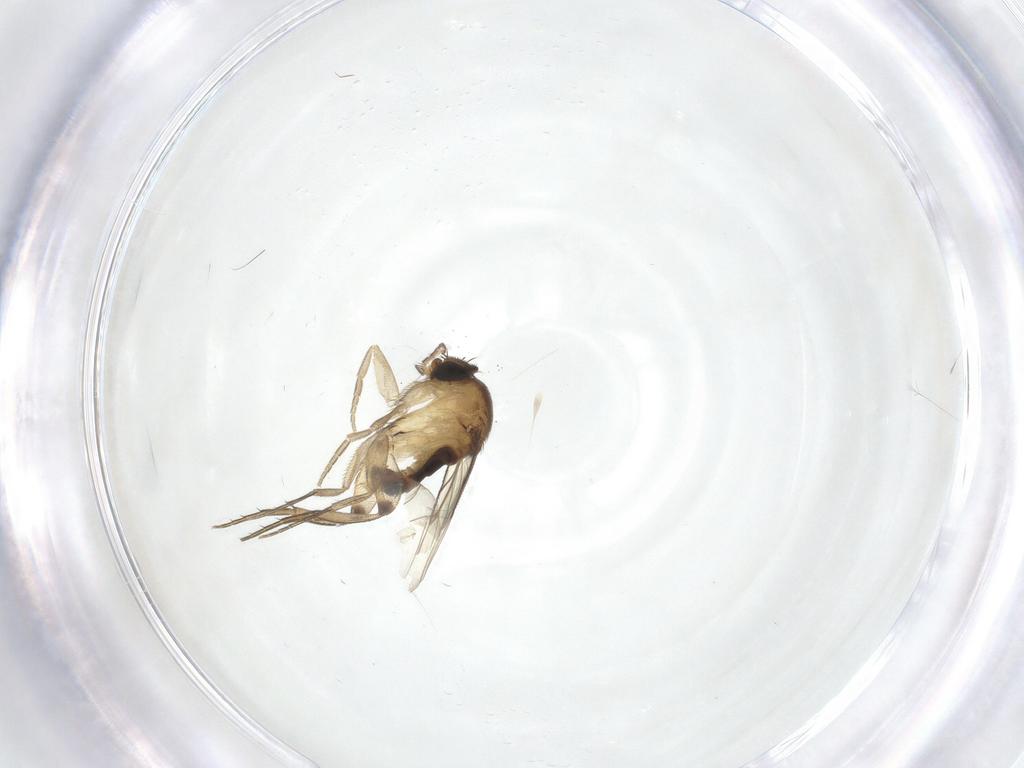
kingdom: Animalia
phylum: Arthropoda
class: Insecta
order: Diptera
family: Phoridae
